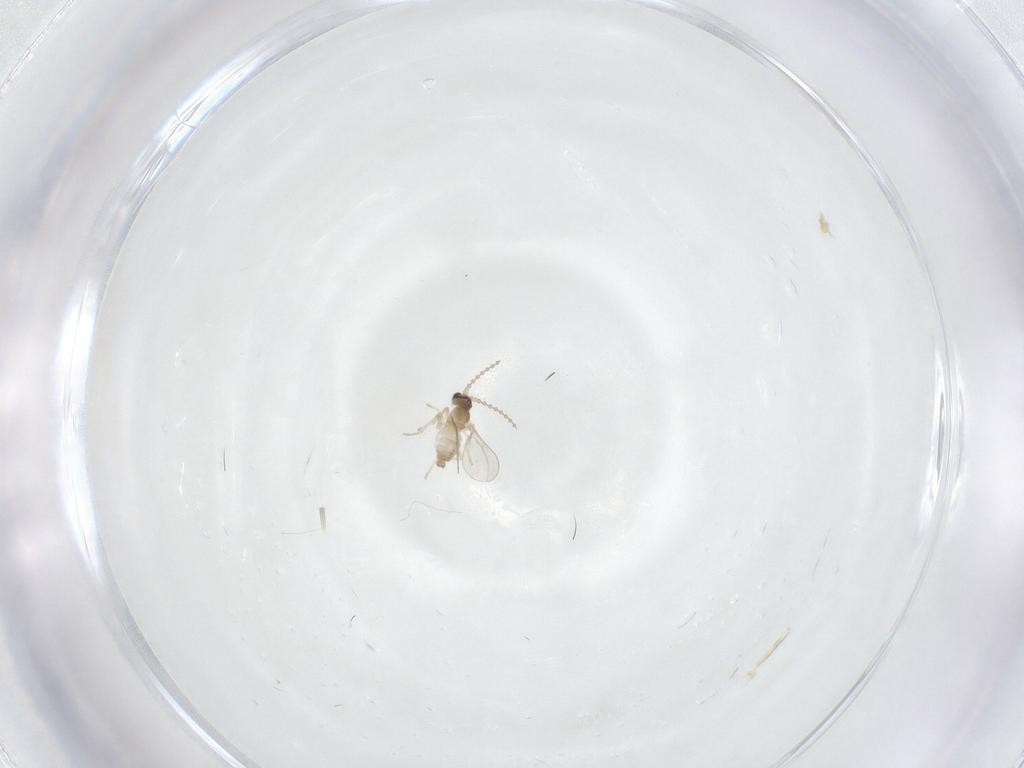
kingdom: Animalia
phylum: Arthropoda
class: Insecta
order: Diptera
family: Cecidomyiidae
